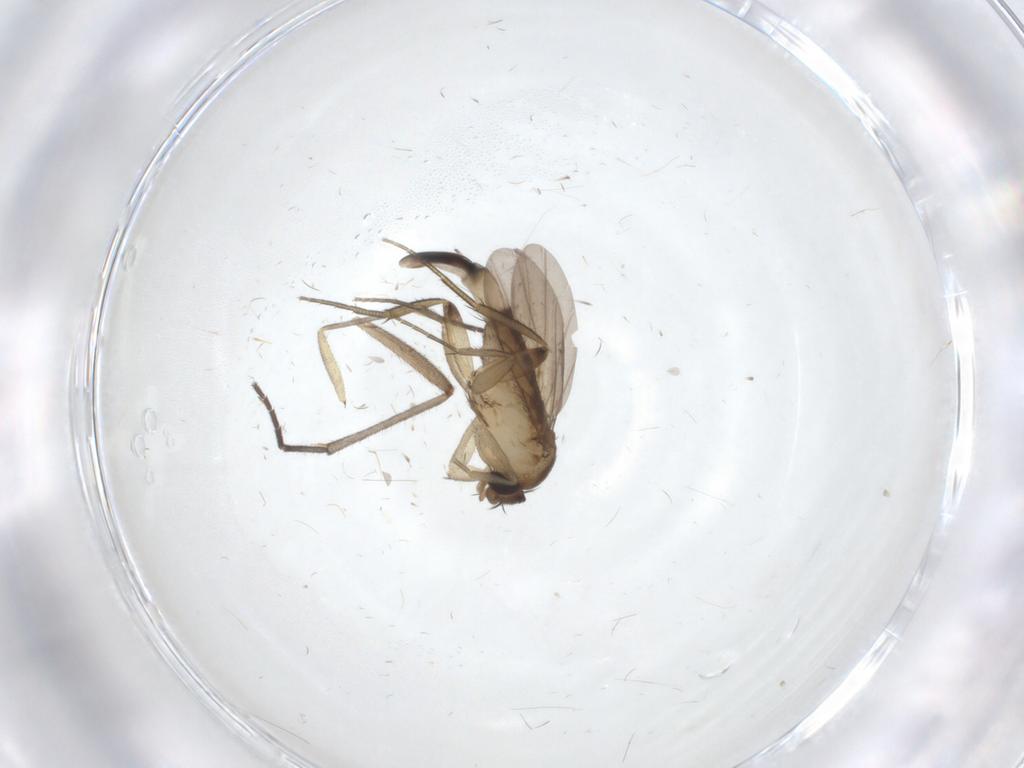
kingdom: Animalia
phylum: Arthropoda
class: Insecta
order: Diptera
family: Phoridae
